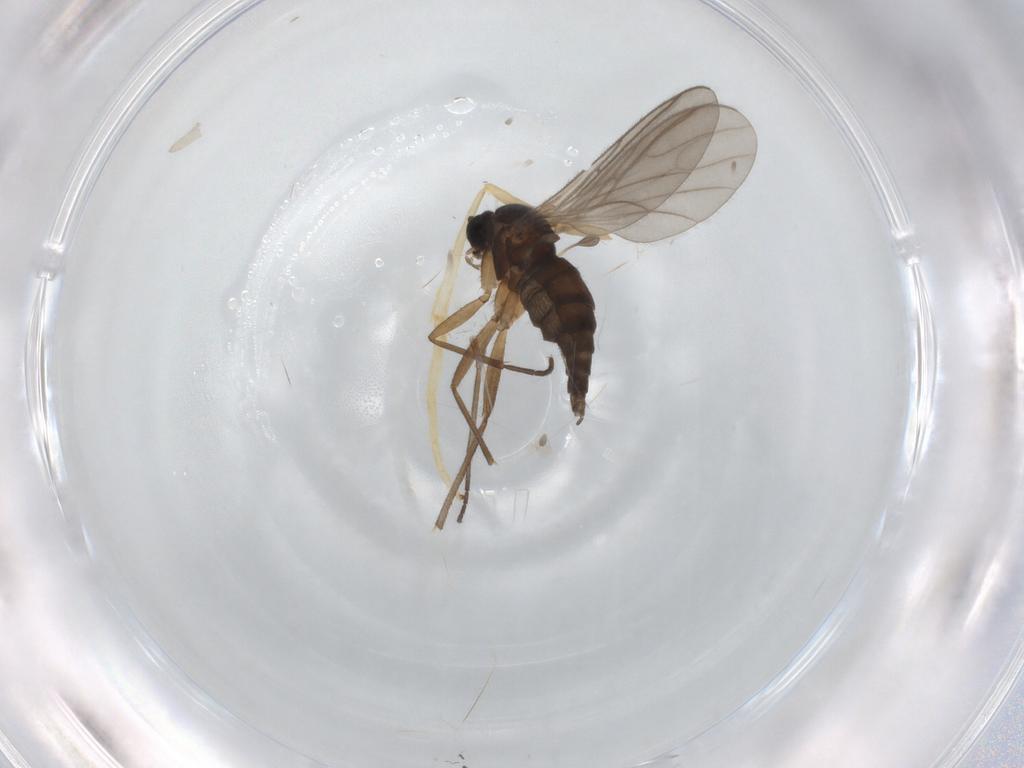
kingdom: Animalia
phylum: Arthropoda
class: Insecta
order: Diptera
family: Sciaridae
